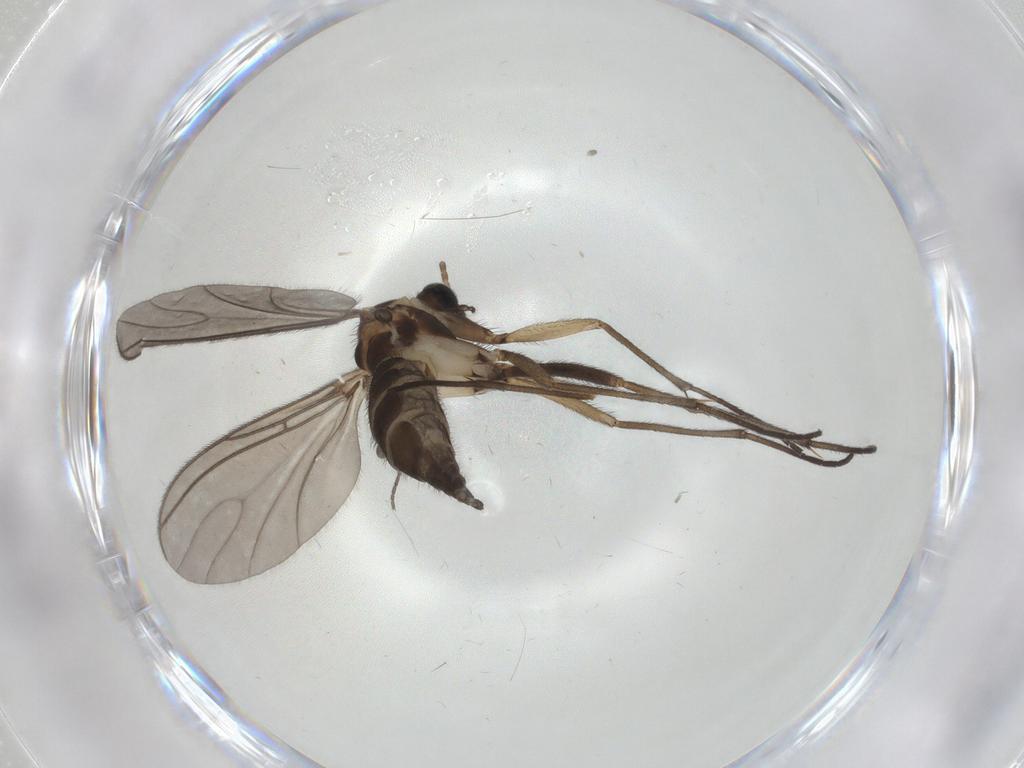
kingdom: Animalia
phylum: Arthropoda
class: Insecta
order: Diptera
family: Sciaridae
